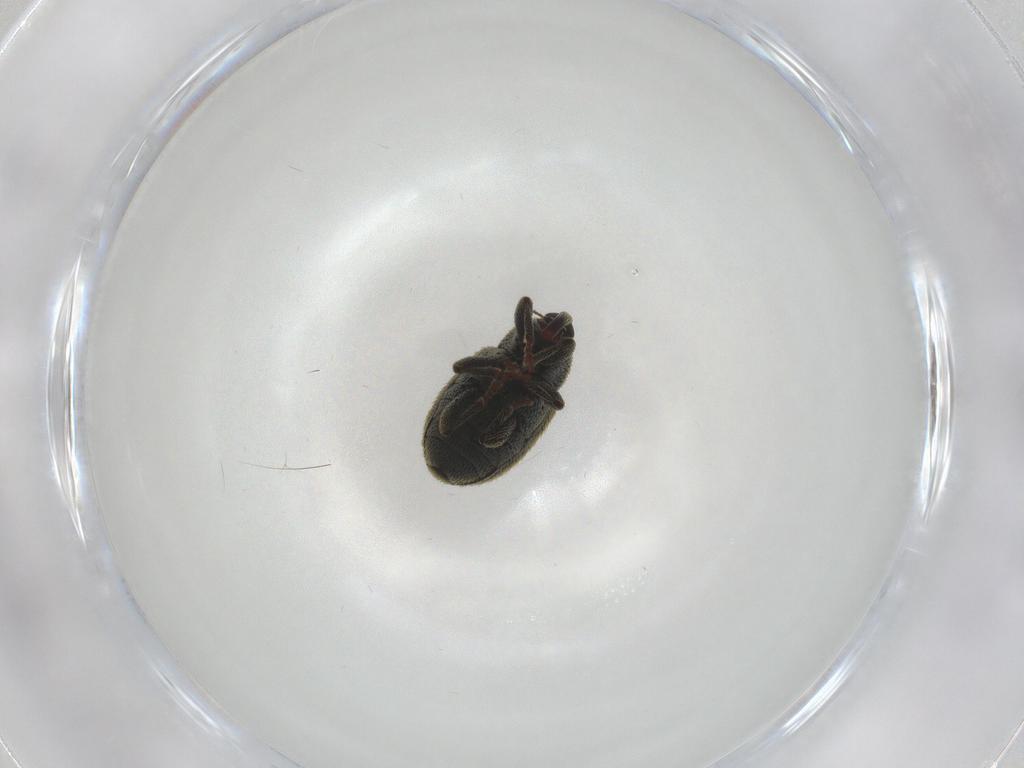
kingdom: Animalia
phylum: Arthropoda
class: Insecta
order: Coleoptera
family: Curculionidae
